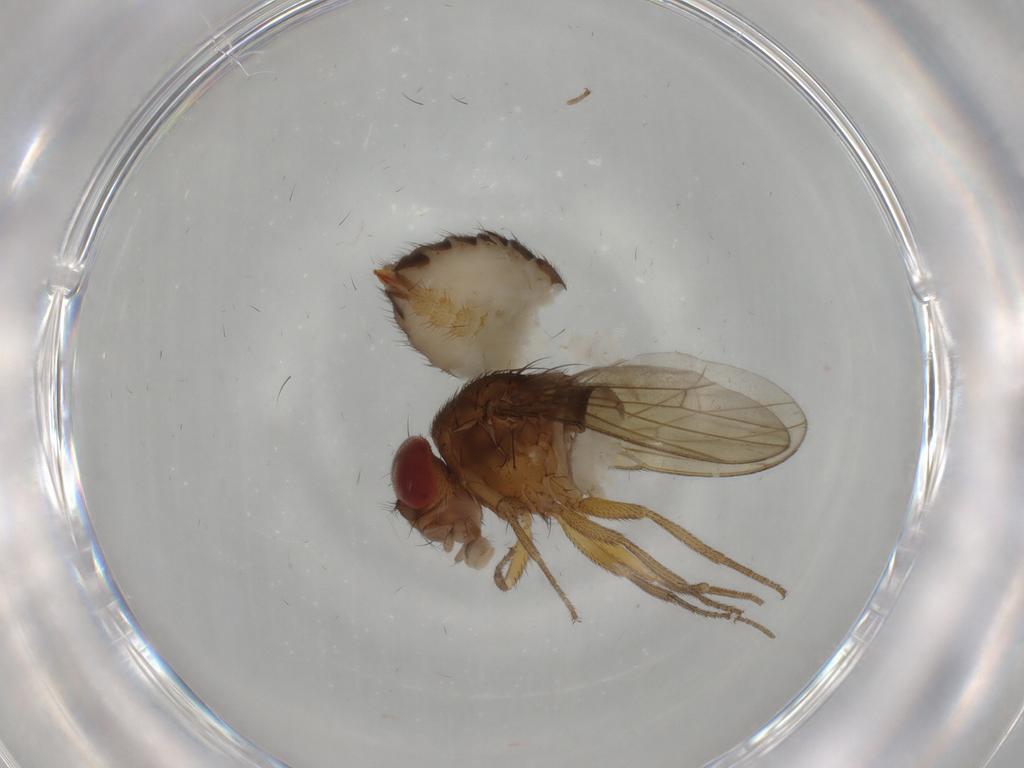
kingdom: Animalia
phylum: Arthropoda
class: Insecta
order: Diptera
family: Drosophilidae
